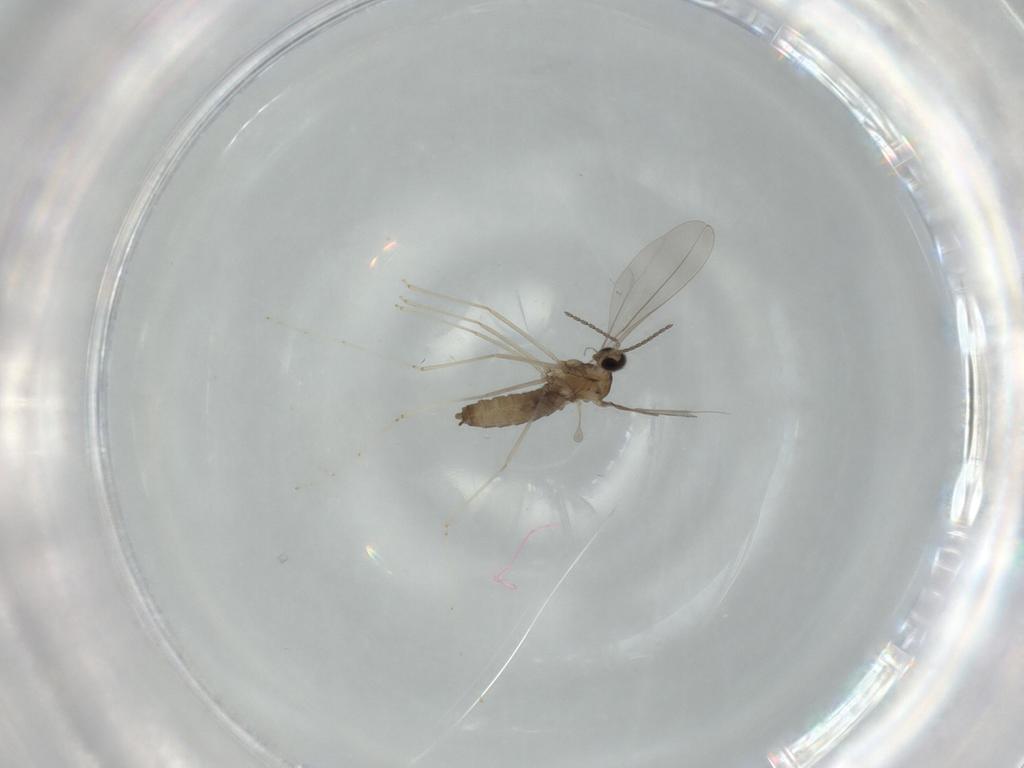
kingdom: Animalia
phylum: Arthropoda
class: Insecta
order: Diptera
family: Cecidomyiidae
